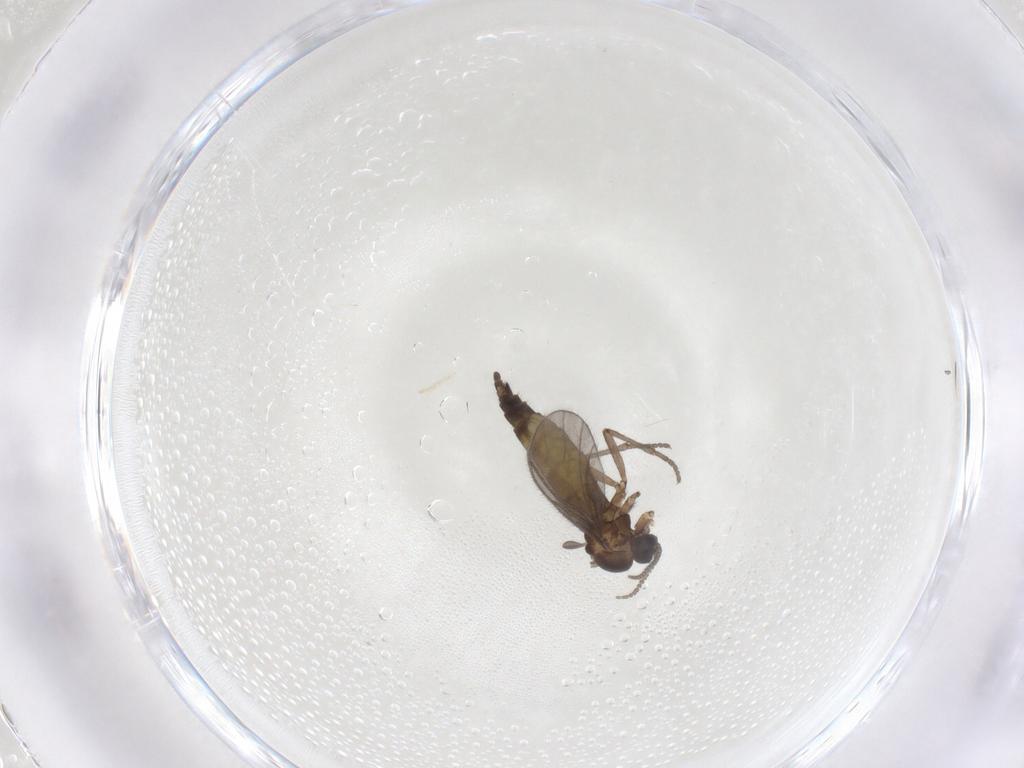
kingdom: Animalia
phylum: Arthropoda
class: Insecta
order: Diptera
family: Sciaridae
